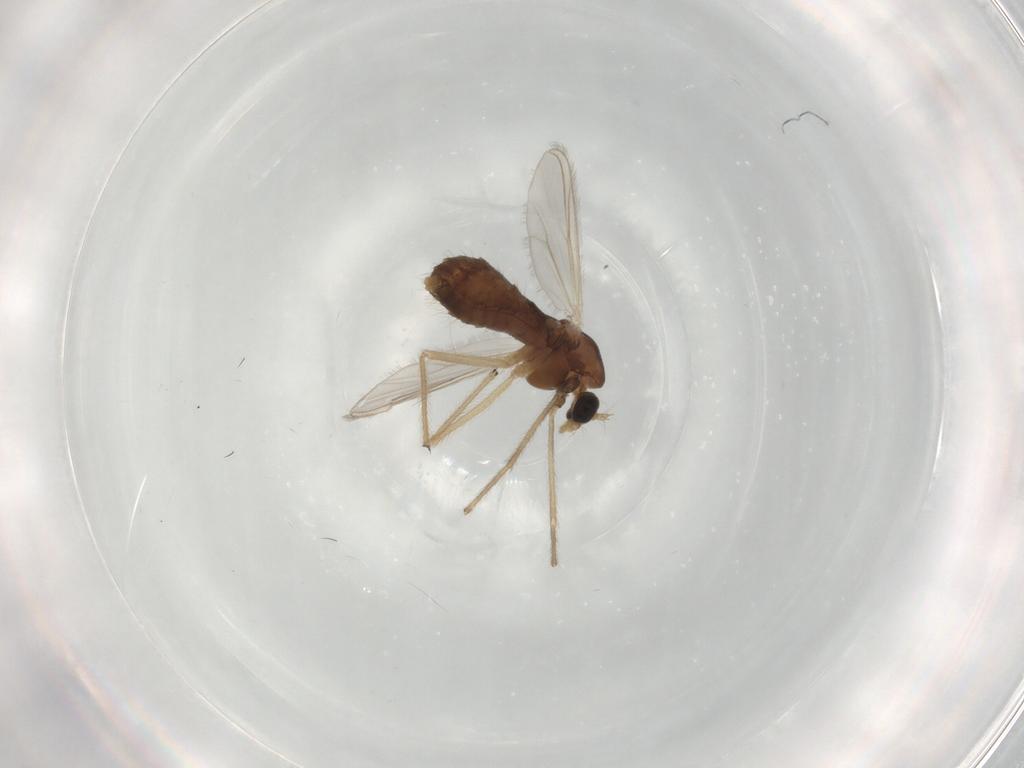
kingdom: Animalia
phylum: Arthropoda
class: Insecta
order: Diptera
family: Chironomidae
